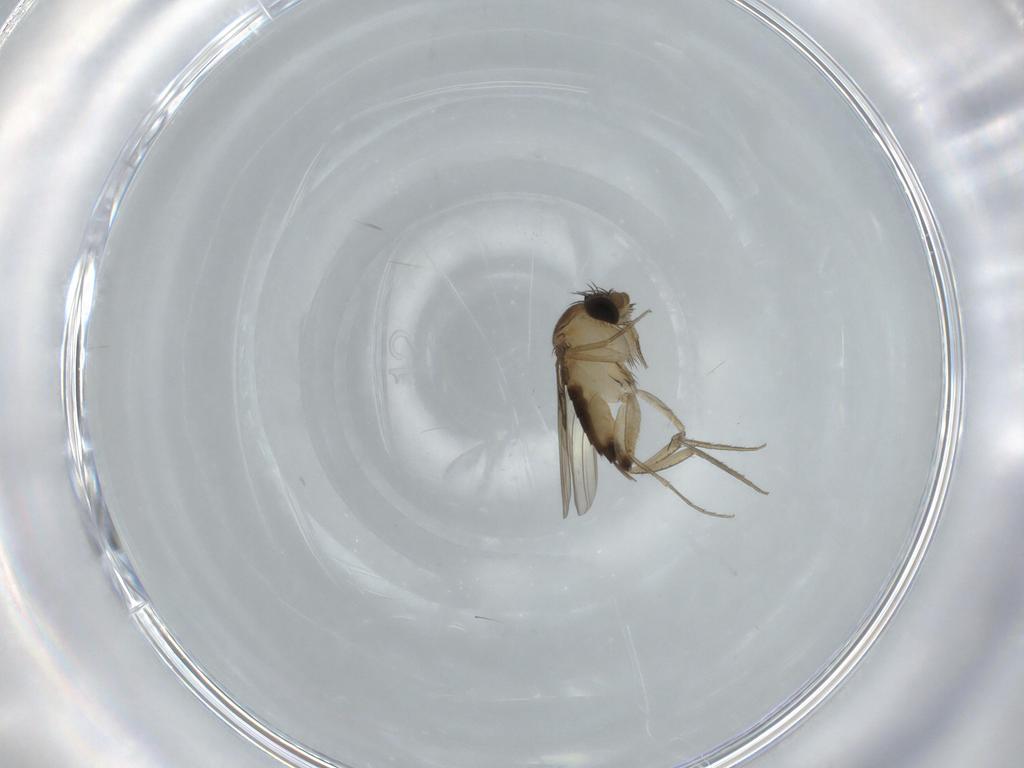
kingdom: Animalia
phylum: Arthropoda
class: Insecta
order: Diptera
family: Phoridae
